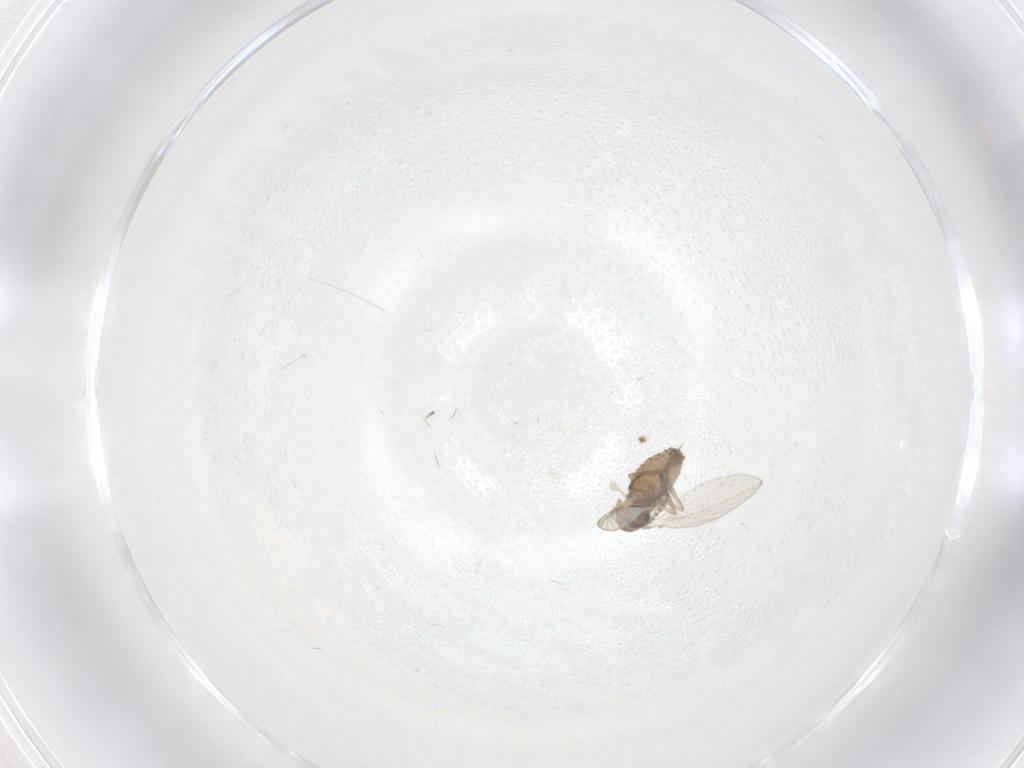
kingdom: Animalia
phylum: Arthropoda
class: Insecta
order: Diptera
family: Psychodidae
